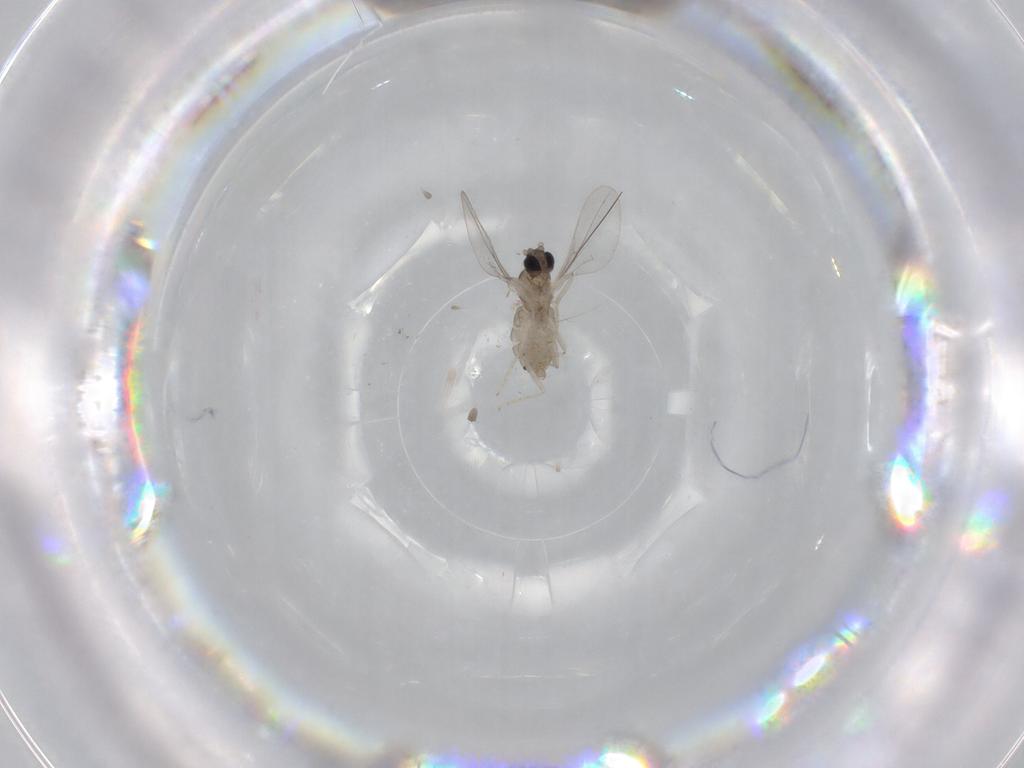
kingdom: Animalia
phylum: Arthropoda
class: Insecta
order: Diptera
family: Cecidomyiidae
